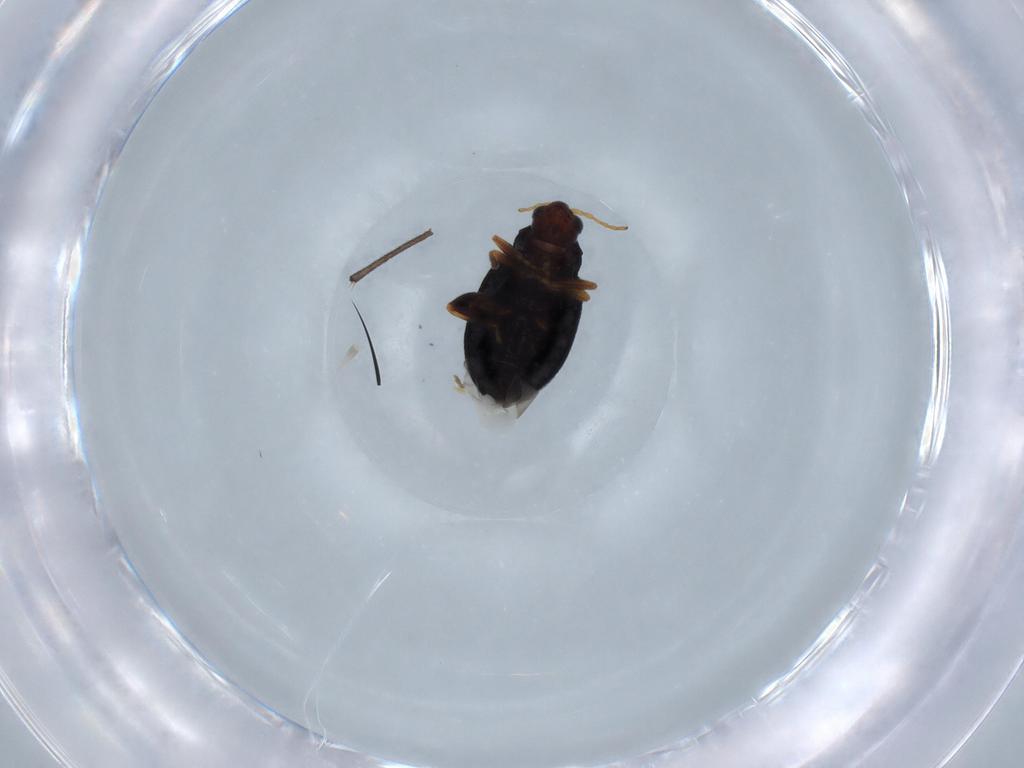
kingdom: Animalia
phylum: Arthropoda
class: Insecta
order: Coleoptera
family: Chrysomelidae
